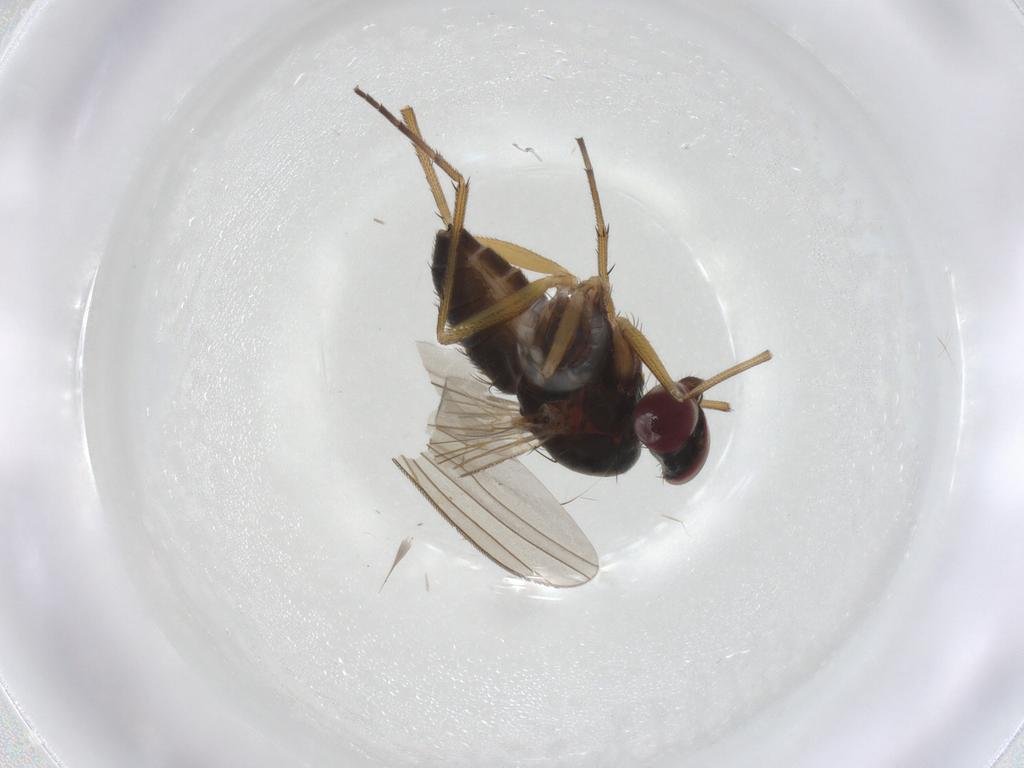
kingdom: Animalia
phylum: Arthropoda
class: Insecta
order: Diptera
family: Dolichopodidae
